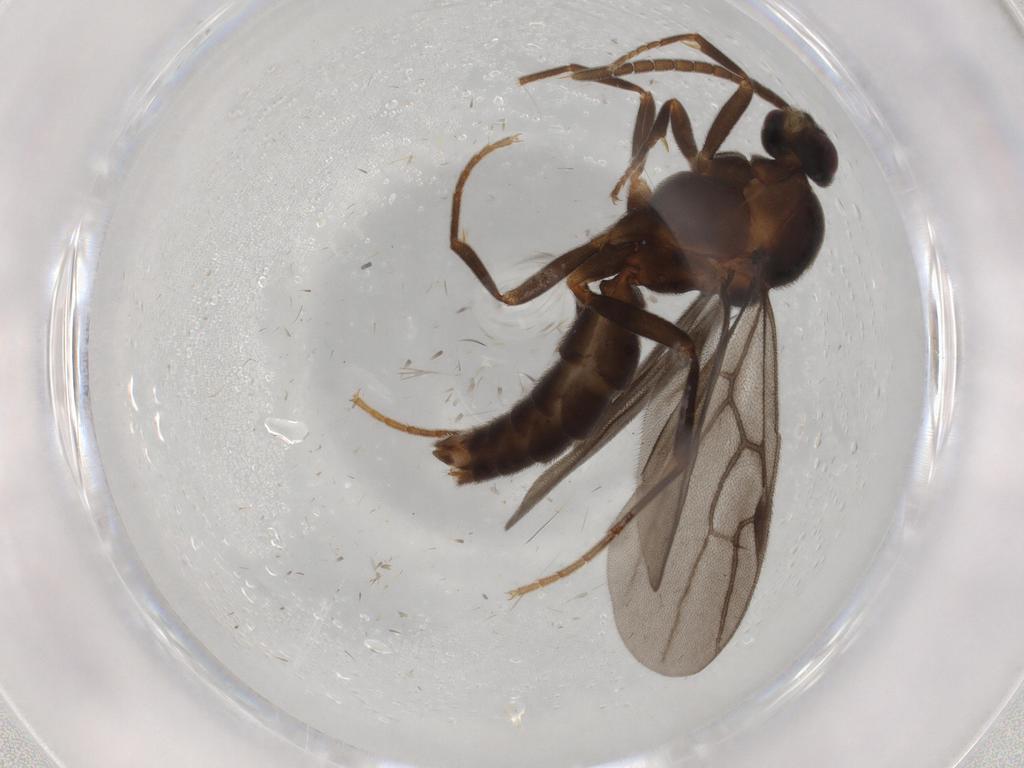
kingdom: Animalia
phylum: Arthropoda
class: Insecta
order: Hymenoptera
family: Formicidae
